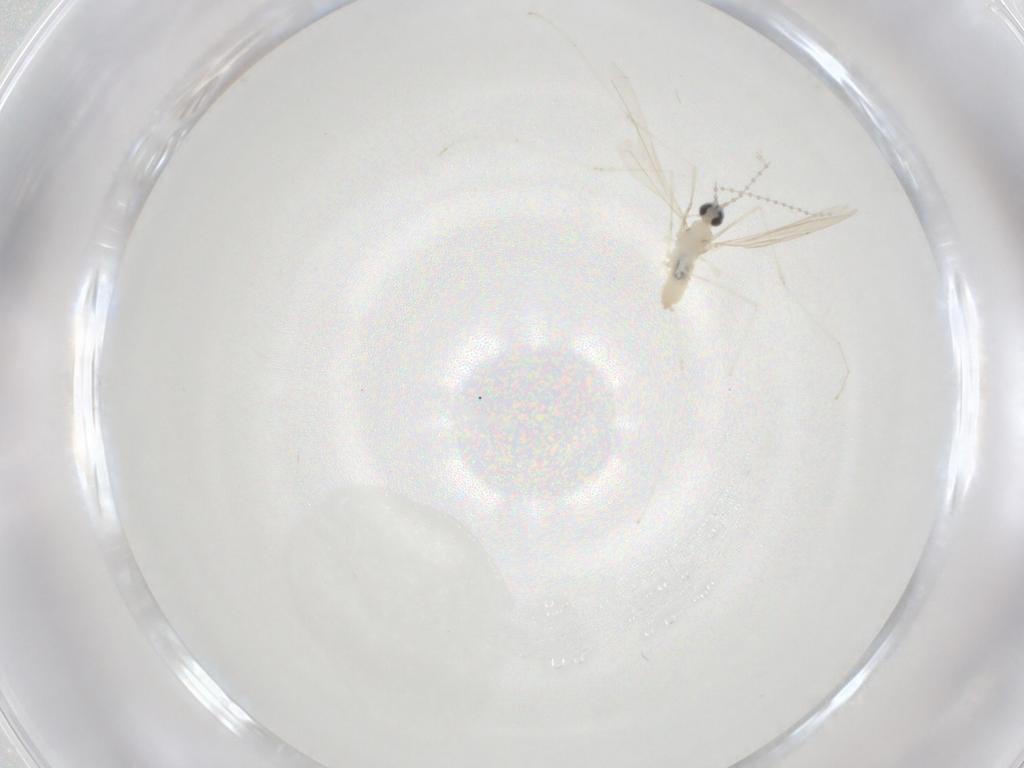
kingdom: Animalia
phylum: Arthropoda
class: Insecta
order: Diptera
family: Cecidomyiidae
